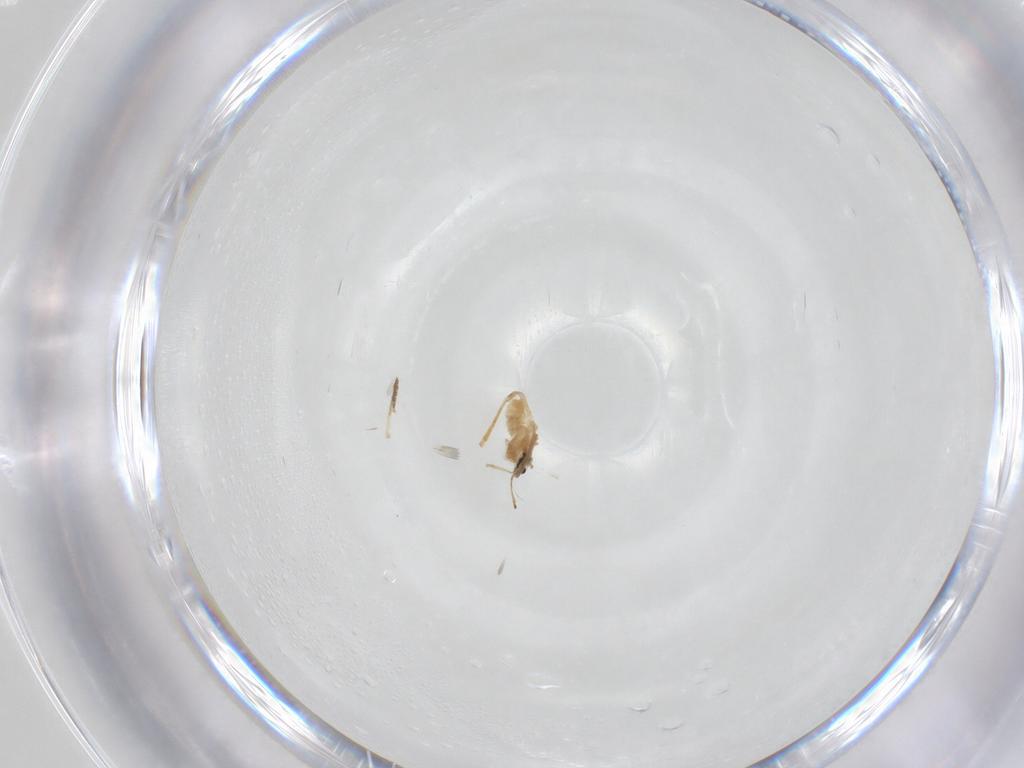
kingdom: Animalia
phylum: Arthropoda
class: Insecta
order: Diptera
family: Cecidomyiidae
